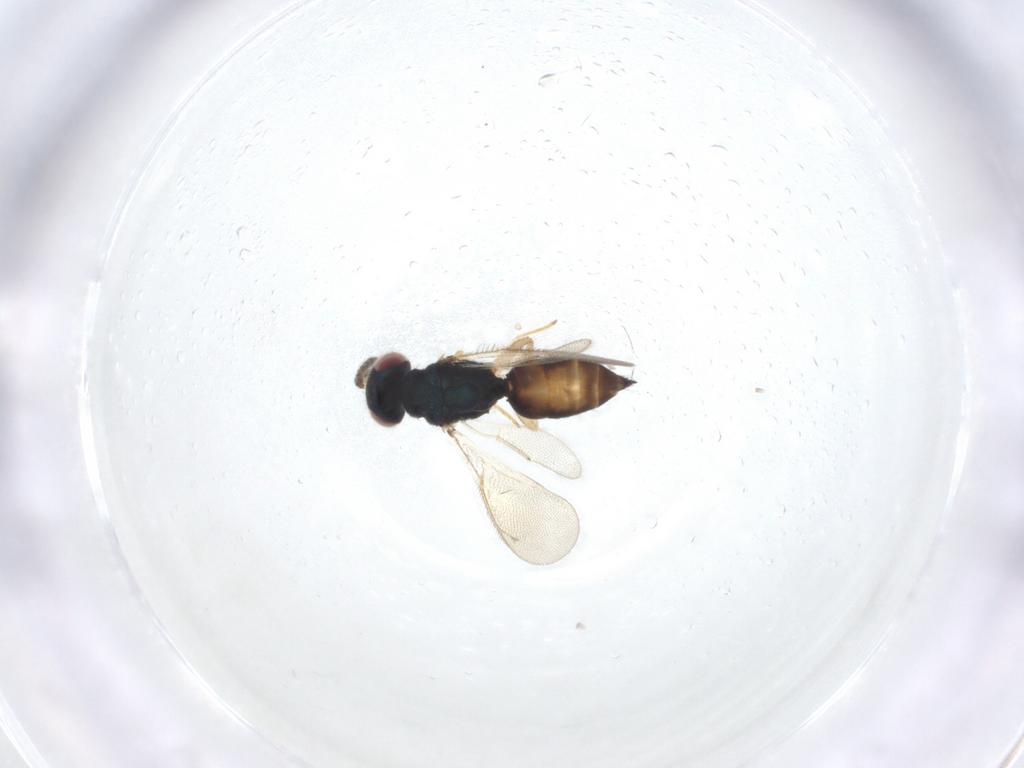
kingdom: Animalia
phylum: Arthropoda
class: Insecta
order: Hymenoptera
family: Eulophidae
